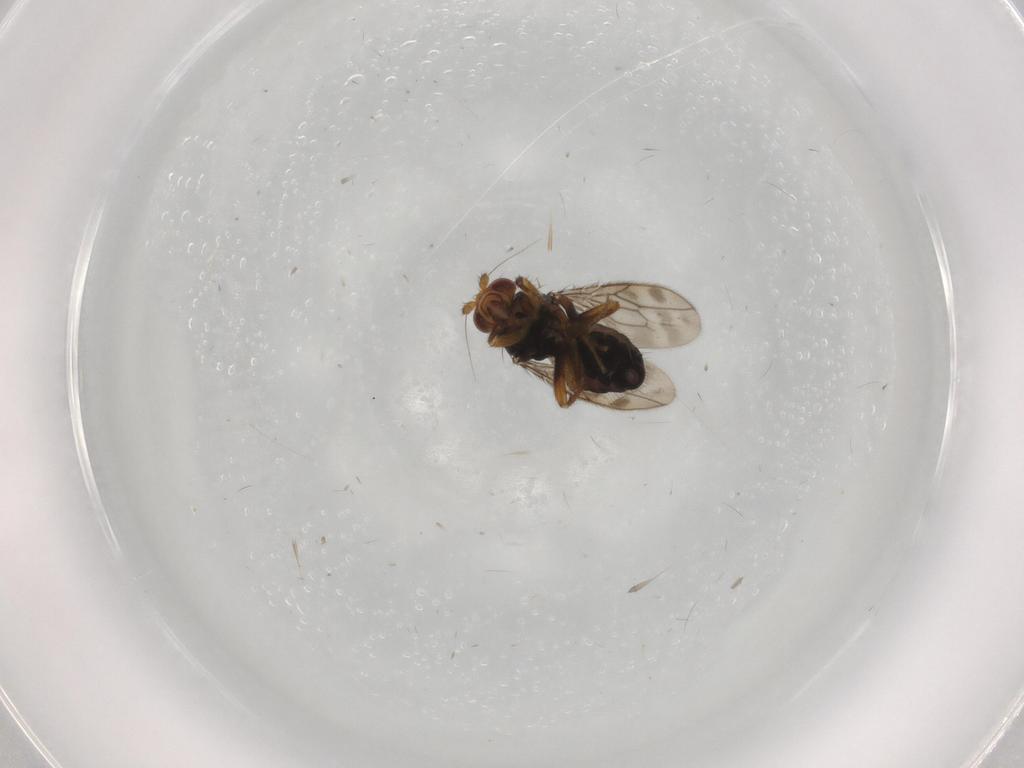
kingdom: Animalia
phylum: Arthropoda
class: Insecta
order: Diptera
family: Sphaeroceridae
